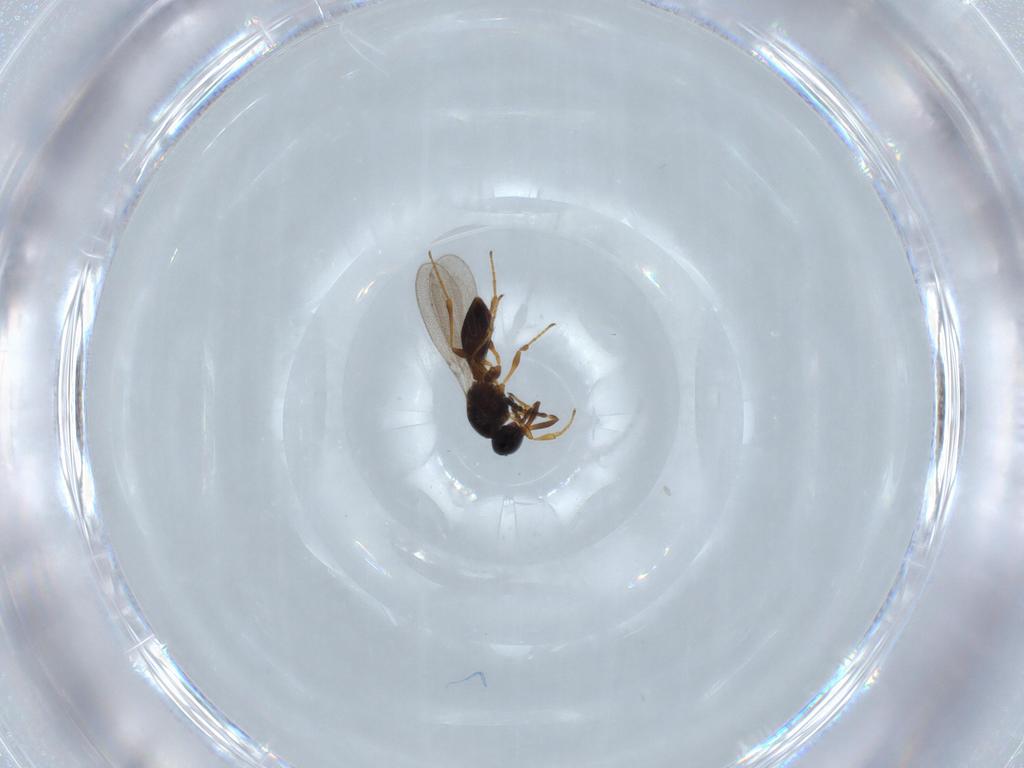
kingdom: Animalia
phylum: Arthropoda
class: Insecta
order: Hymenoptera
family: Platygastridae
